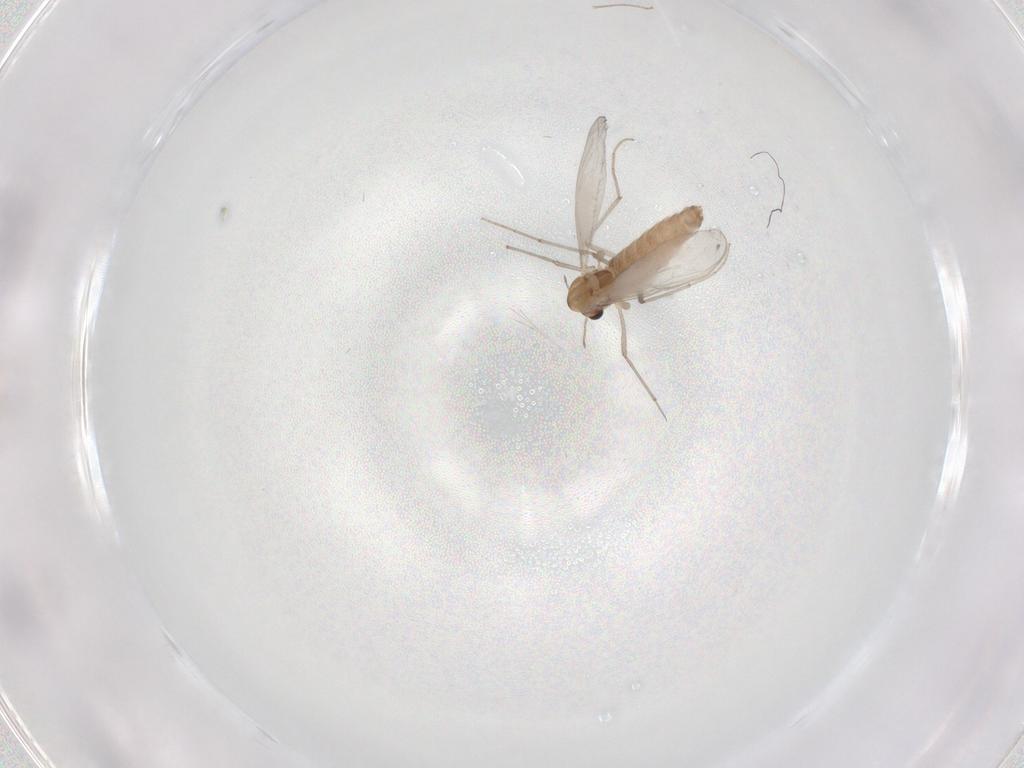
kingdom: Animalia
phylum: Arthropoda
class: Insecta
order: Diptera
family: Chironomidae
